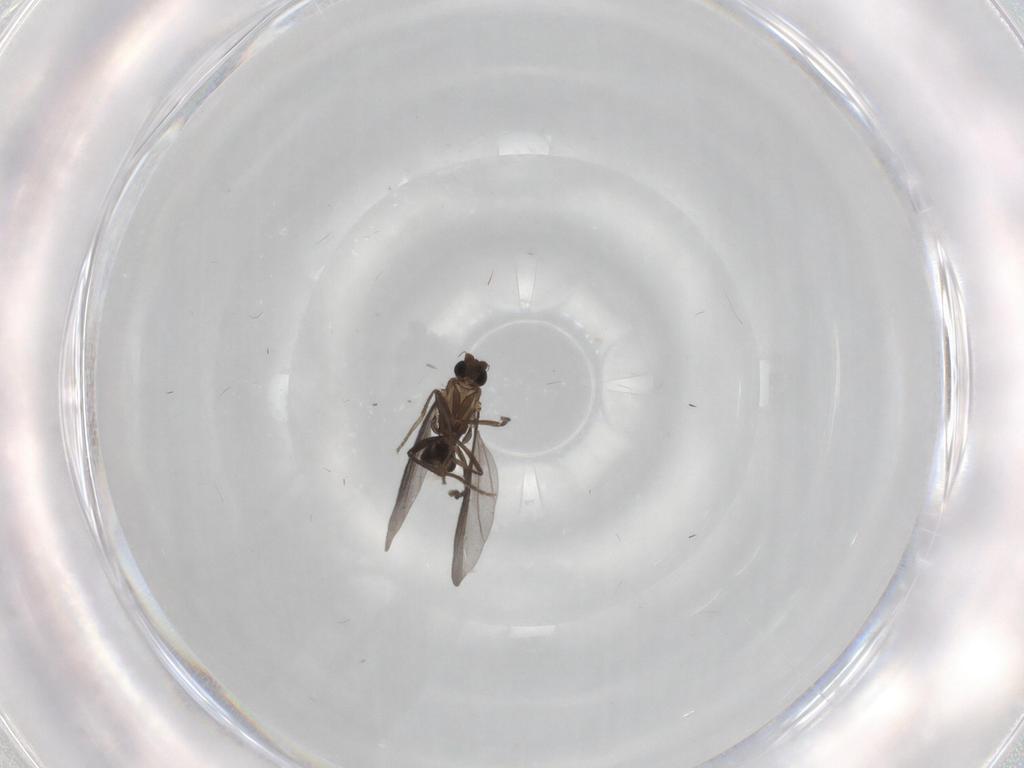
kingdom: Animalia
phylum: Arthropoda
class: Insecta
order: Diptera
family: Phoridae
